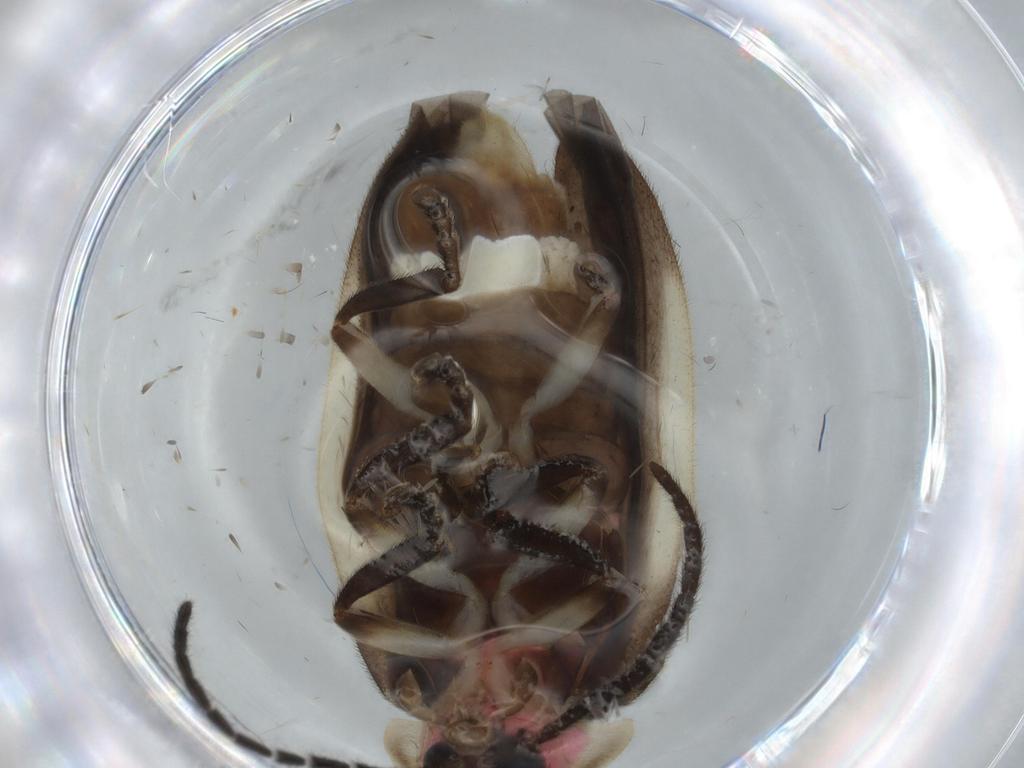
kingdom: Animalia
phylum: Arthropoda
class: Insecta
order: Coleoptera
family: Lampyridae
